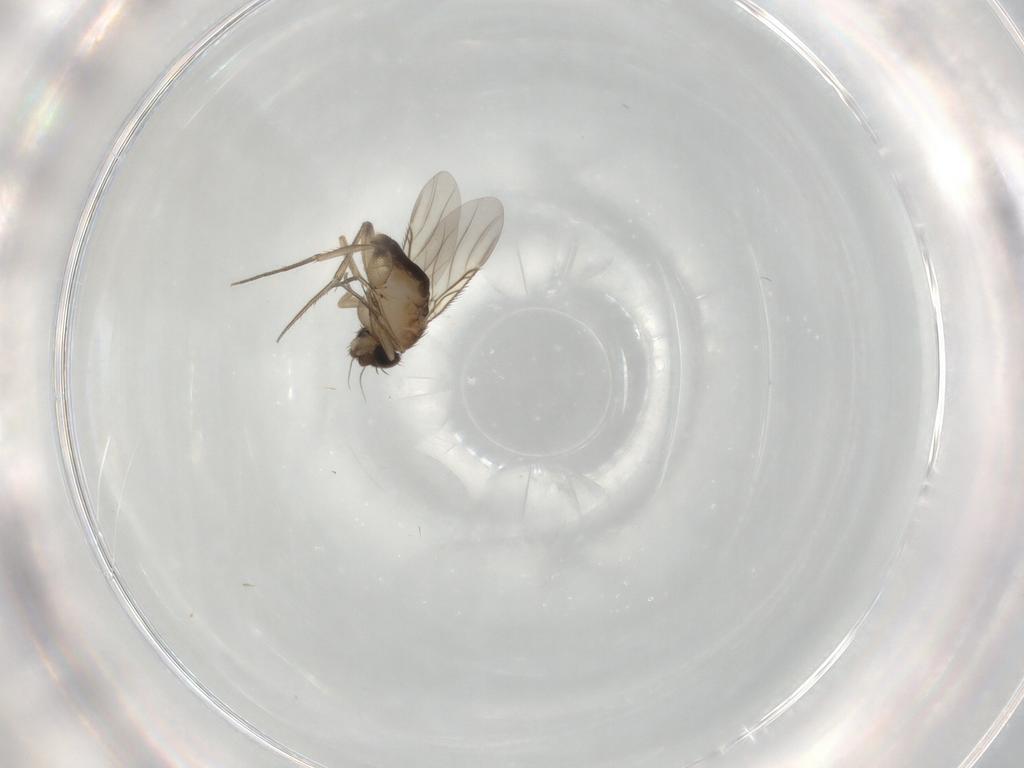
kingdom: Animalia
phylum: Arthropoda
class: Insecta
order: Diptera
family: Phoridae
